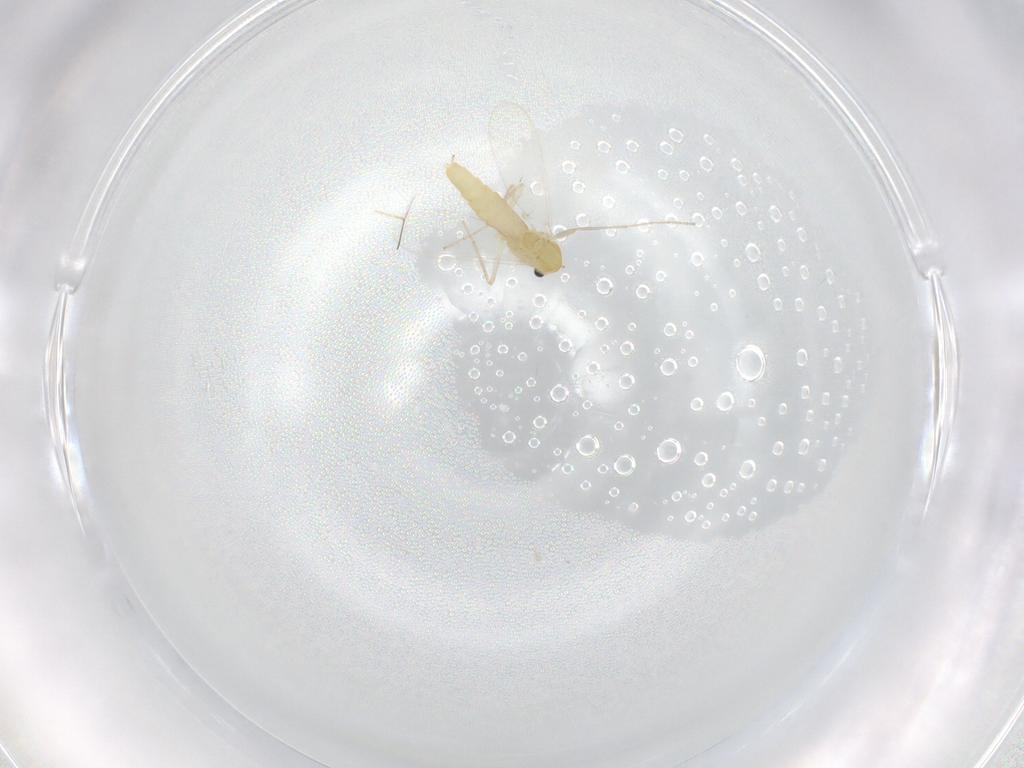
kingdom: Animalia
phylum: Arthropoda
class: Insecta
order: Diptera
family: Chironomidae
